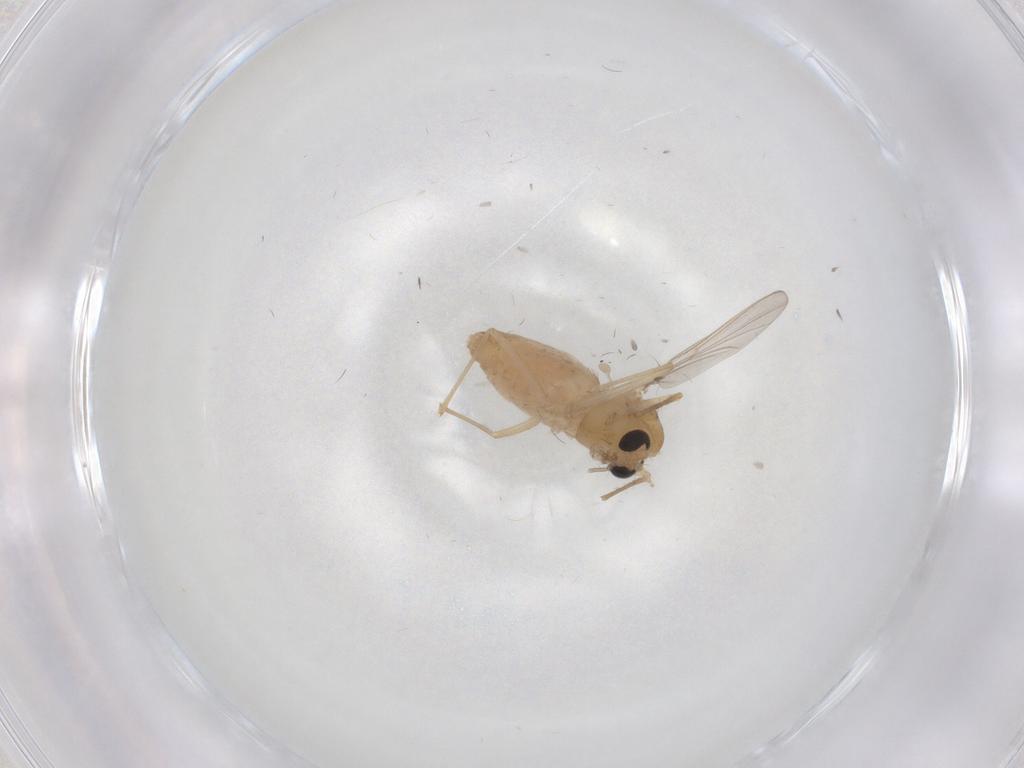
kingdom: Animalia
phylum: Arthropoda
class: Insecta
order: Diptera
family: Chironomidae
